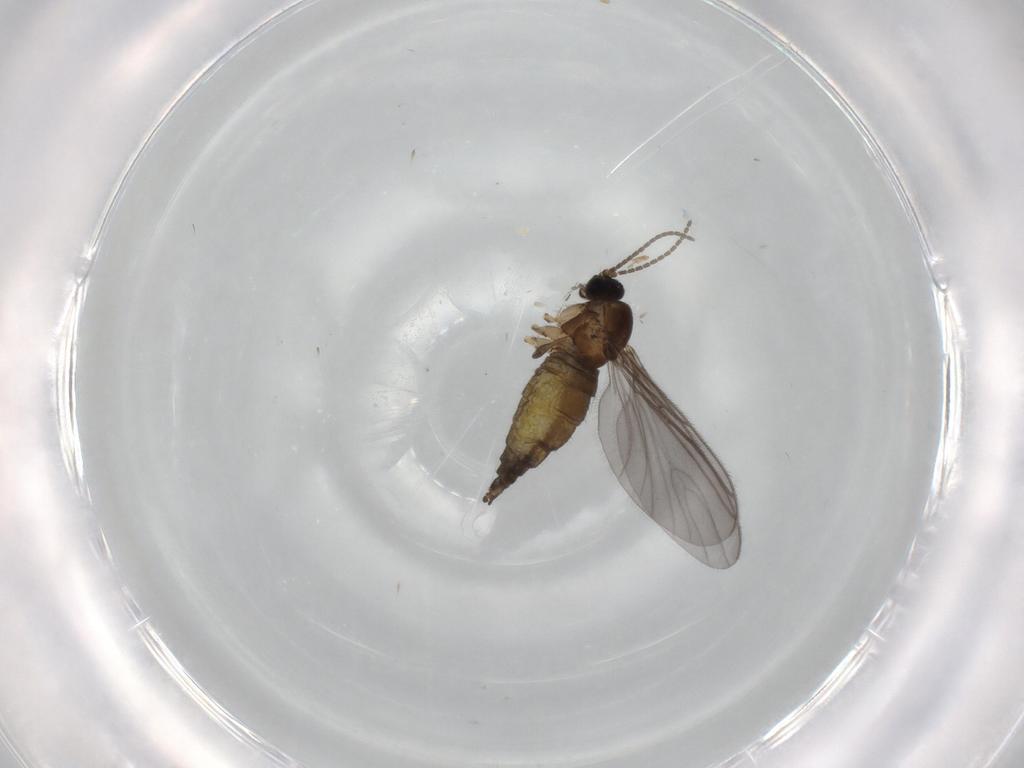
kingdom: Animalia
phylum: Arthropoda
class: Insecta
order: Diptera
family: Sciaridae
